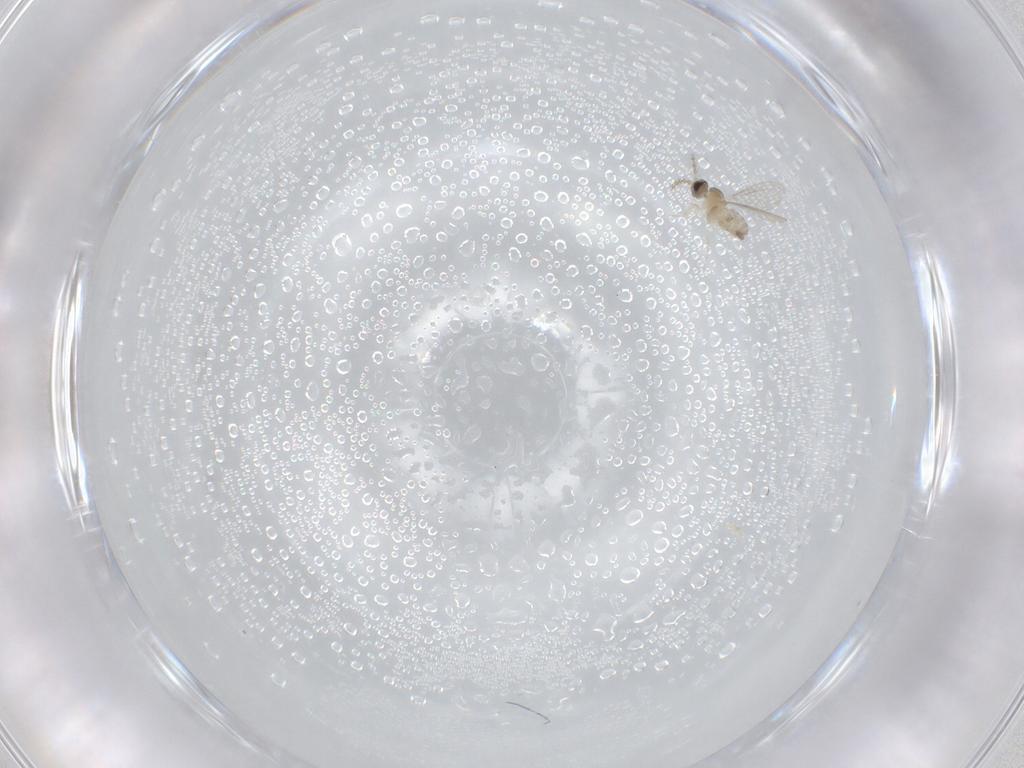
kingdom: Animalia
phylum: Arthropoda
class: Insecta
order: Diptera
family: Cecidomyiidae
